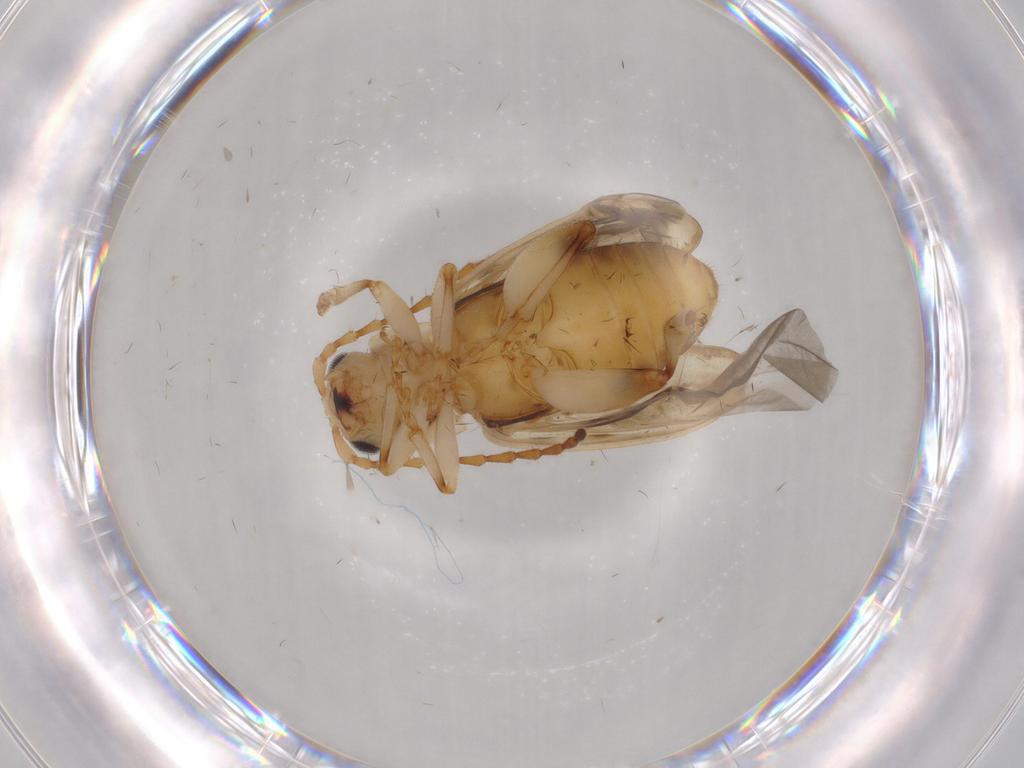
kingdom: Animalia
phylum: Arthropoda
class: Insecta
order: Coleoptera
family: Chrysomelidae
